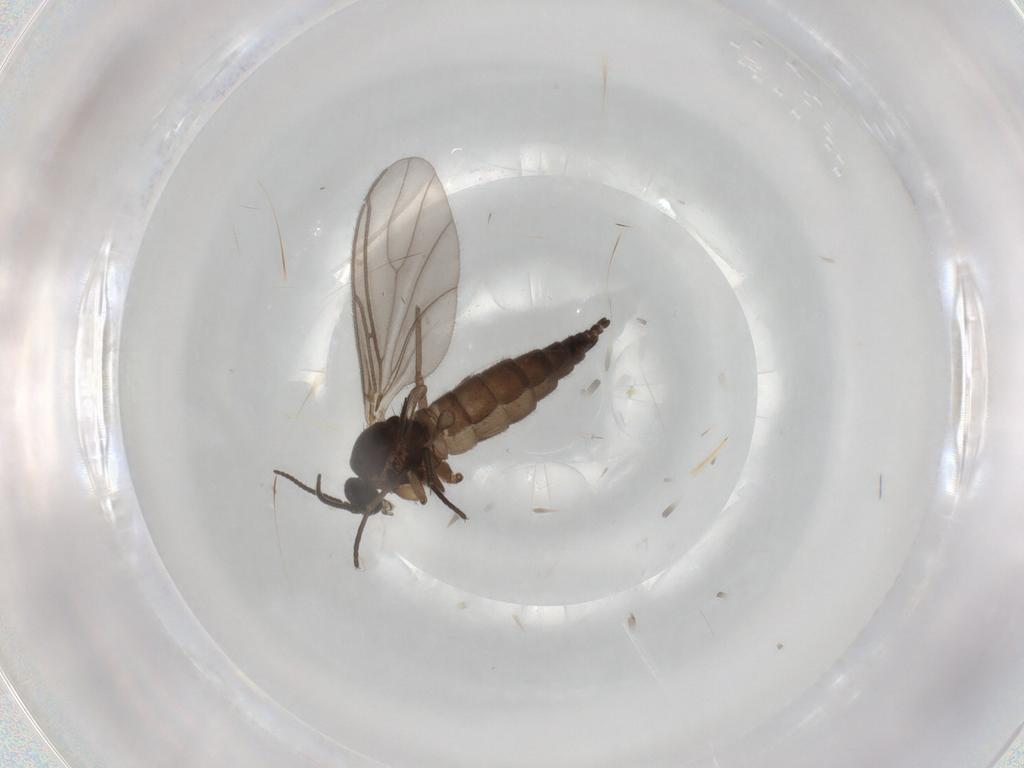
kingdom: Animalia
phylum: Arthropoda
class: Insecta
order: Diptera
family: Sciaridae
